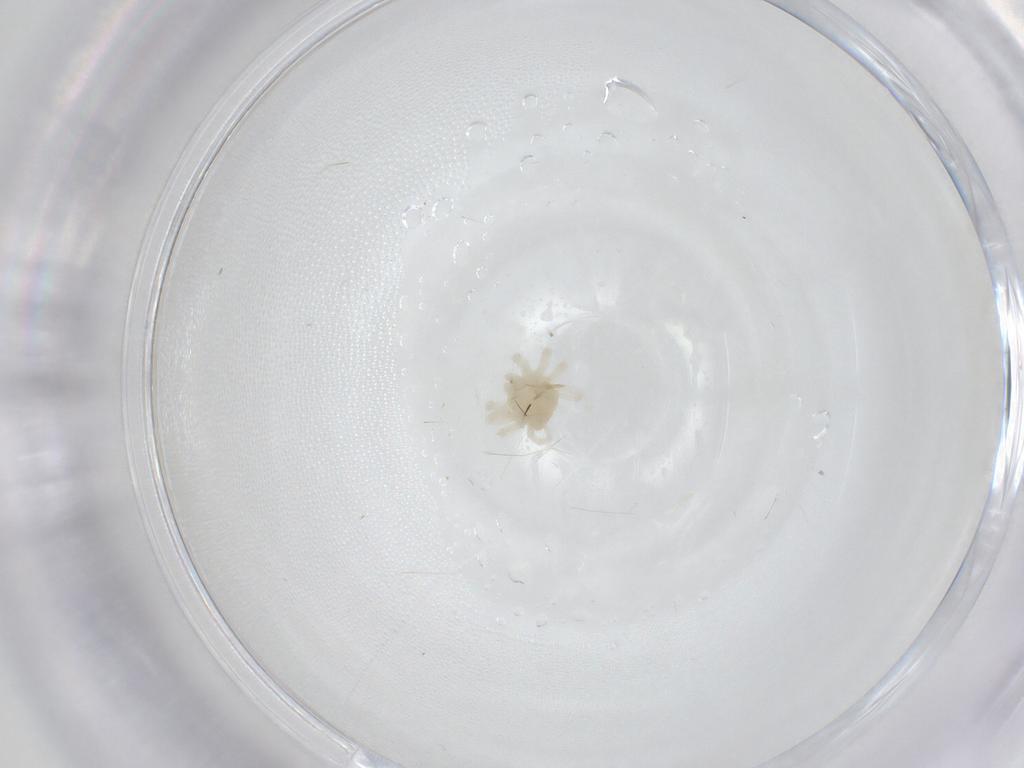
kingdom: Animalia
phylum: Arthropoda
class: Arachnida
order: Trombidiformes
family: Anystidae
